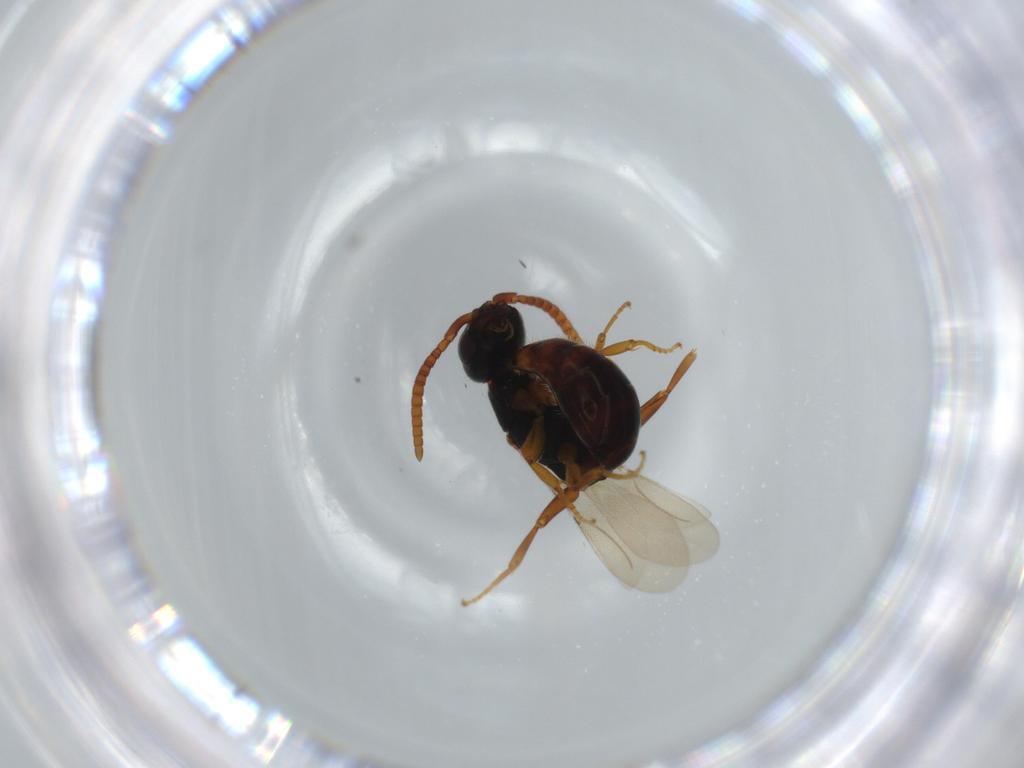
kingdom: Animalia
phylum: Arthropoda
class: Insecta
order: Hymenoptera
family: Bethylidae
